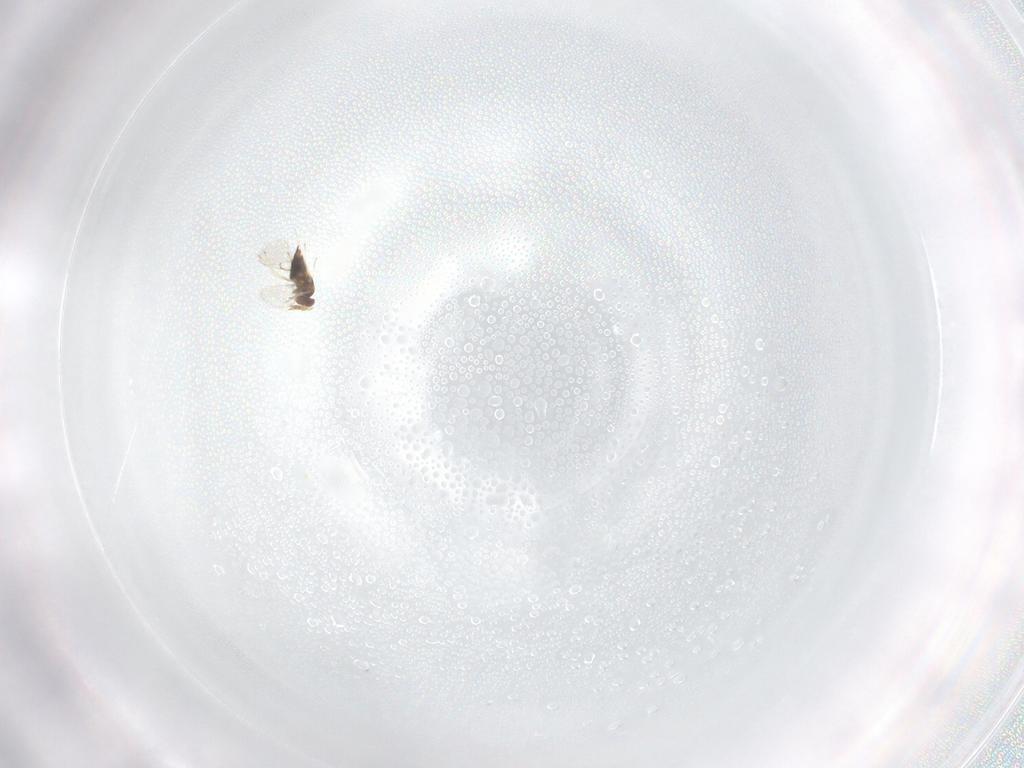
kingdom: Animalia
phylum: Arthropoda
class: Insecta
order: Hymenoptera
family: Trichogrammatidae
